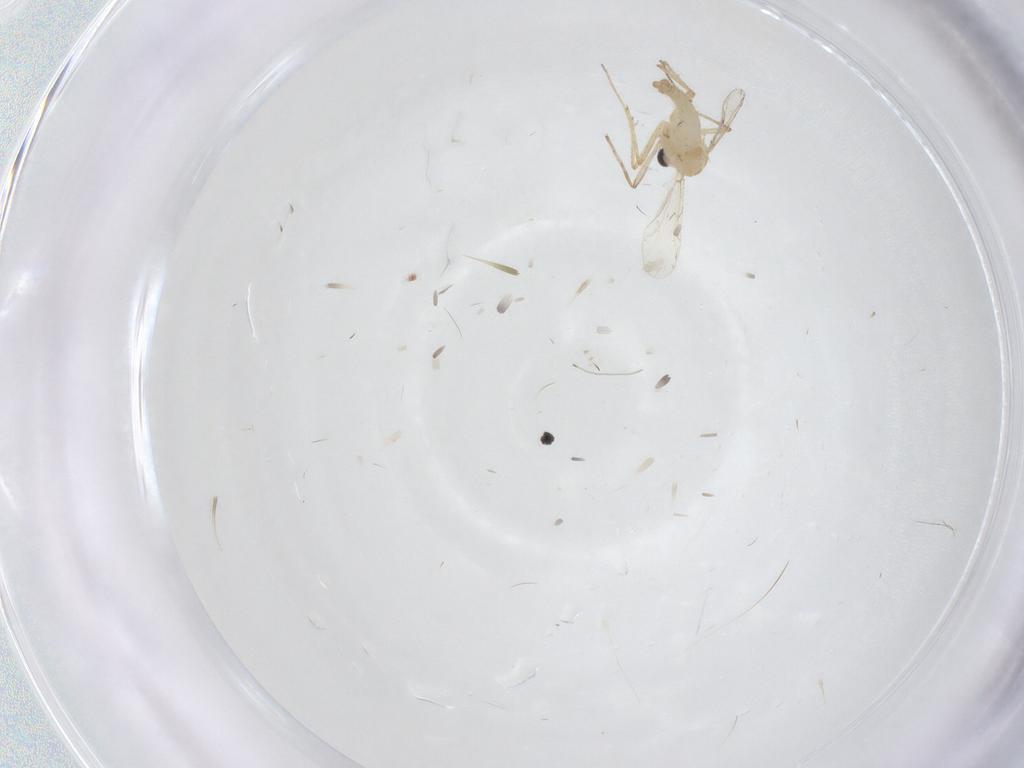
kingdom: Animalia
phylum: Arthropoda
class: Insecta
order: Diptera
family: Chironomidae
